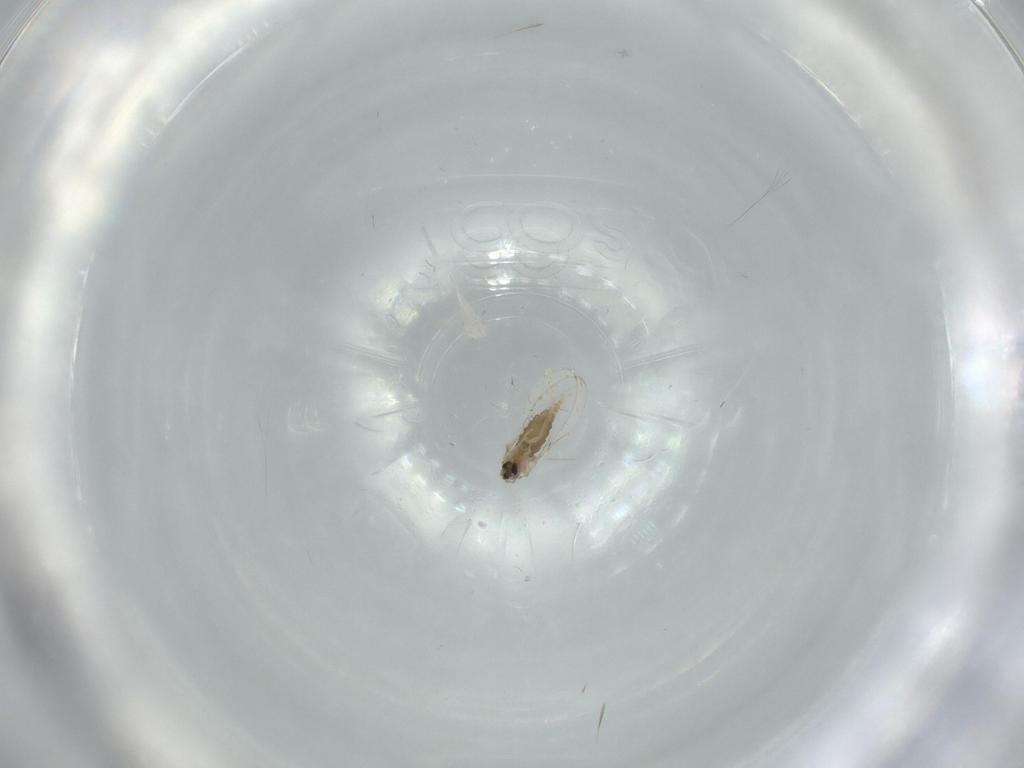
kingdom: Animalia
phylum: Arthropoda
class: Insecta
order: Diptera
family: Cecidomyiidae
